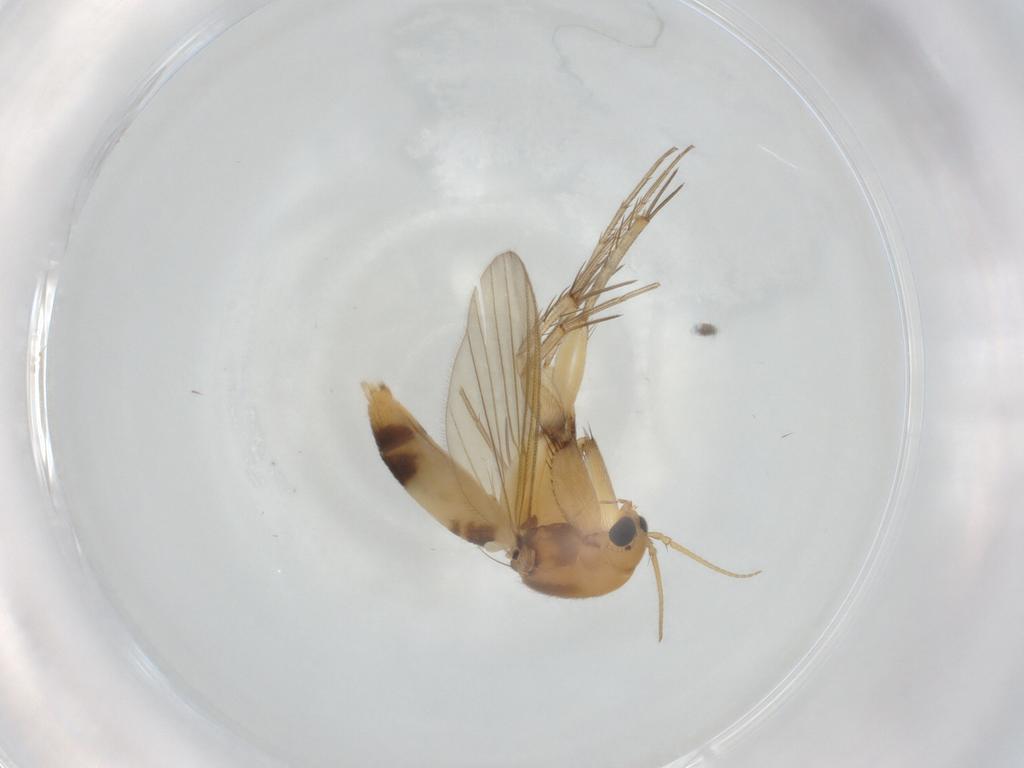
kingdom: Animalia
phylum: Arthropoda
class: Insecta
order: Diptera
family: Mycetophilidae
